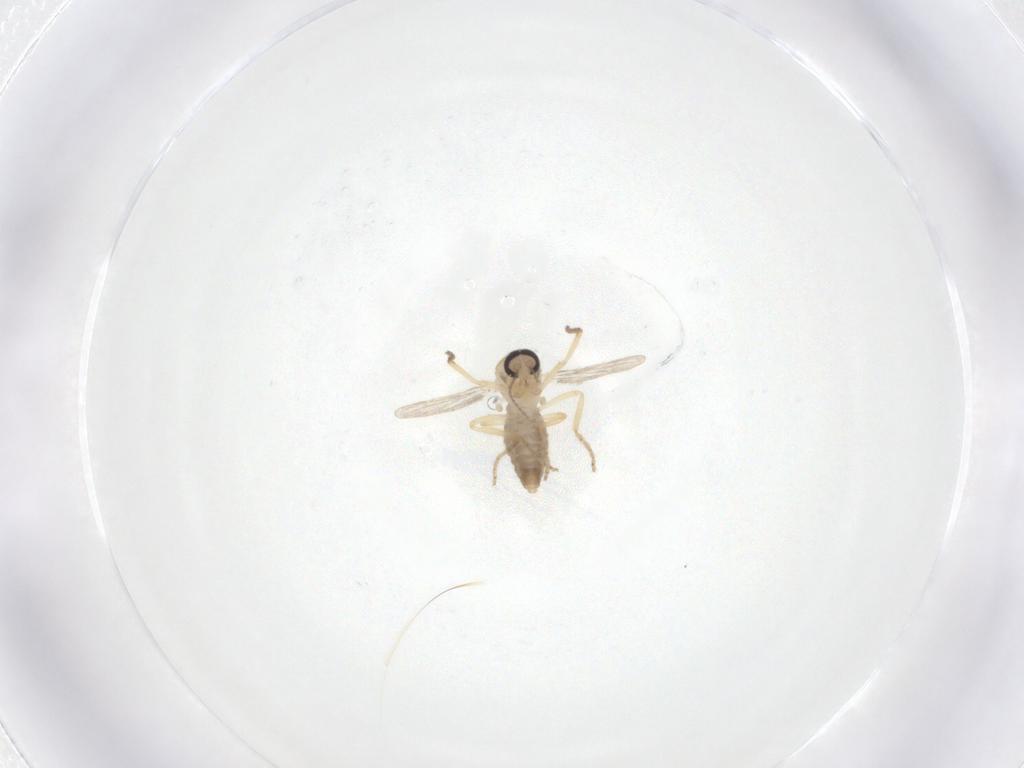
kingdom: Animalia
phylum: Arthropoda
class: Insecta
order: Diptera
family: Ceratopogonidae
